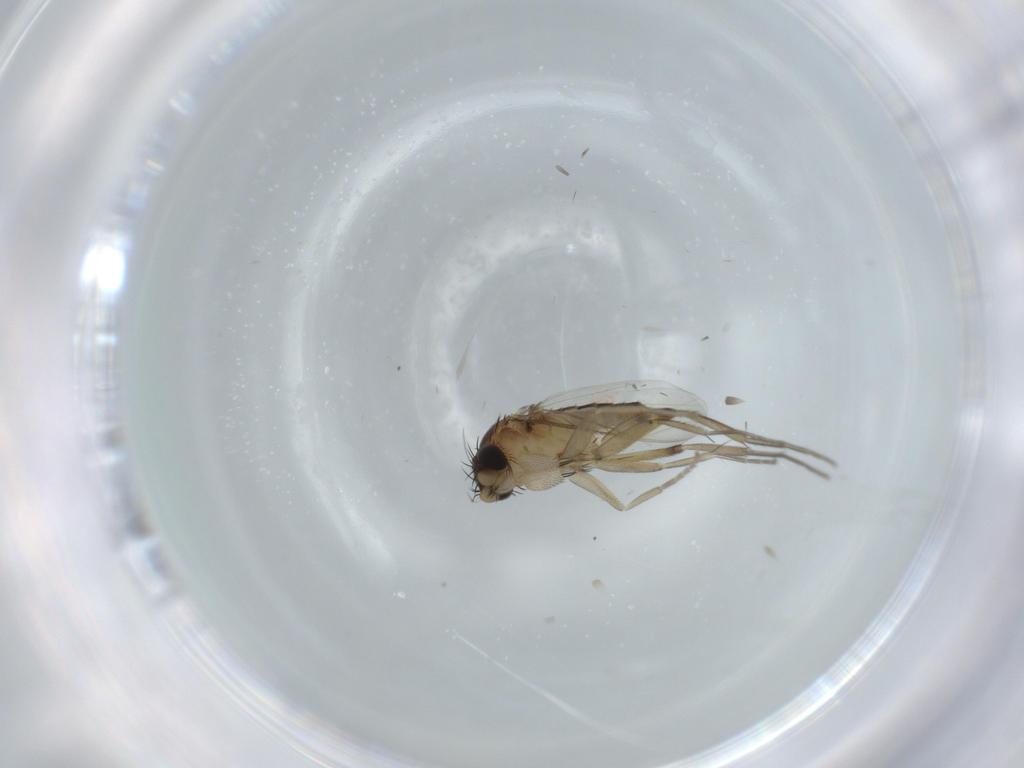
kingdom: Animalia
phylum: Arthropoda
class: Insecta
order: Diptera
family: Phoridae
